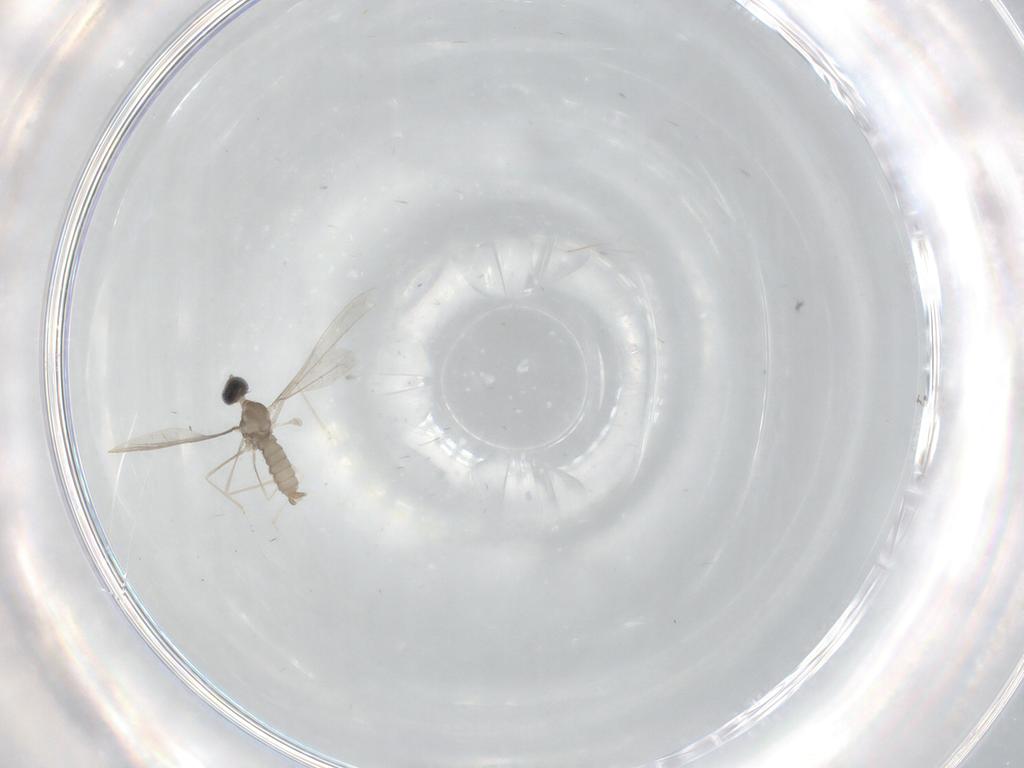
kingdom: Animalia
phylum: Arthropoda
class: Insecta
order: Diptera
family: Cecidomyiidae
